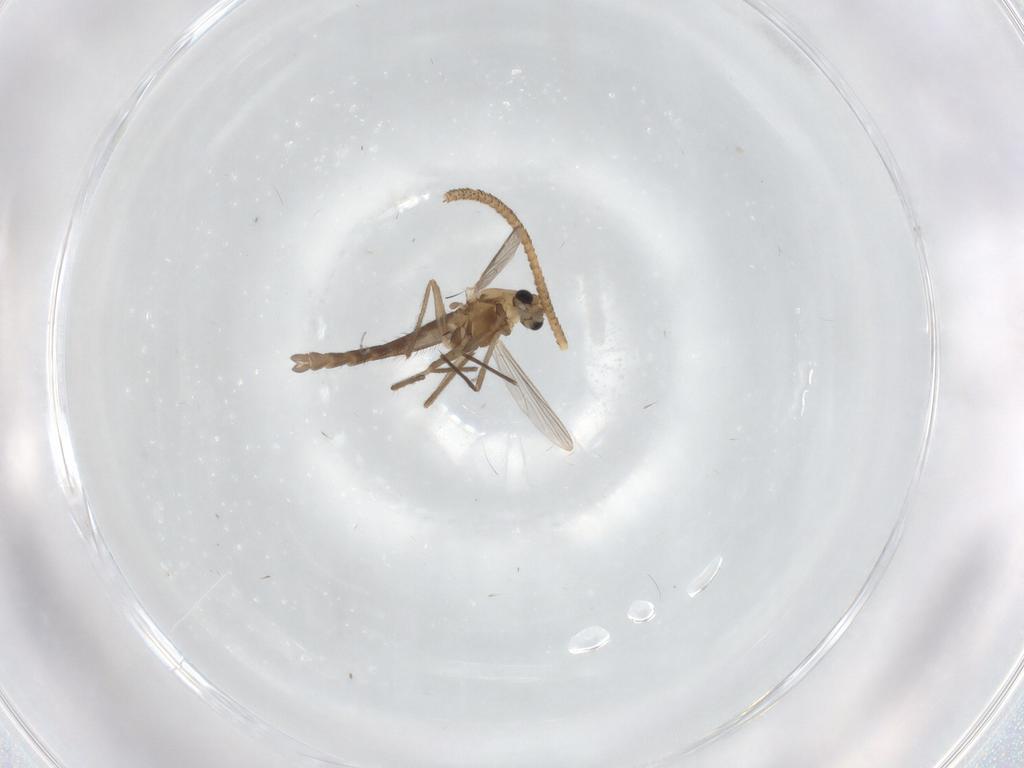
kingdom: Animalia
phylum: Arthropoda
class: Insecta
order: Diptera
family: Chironomidae
